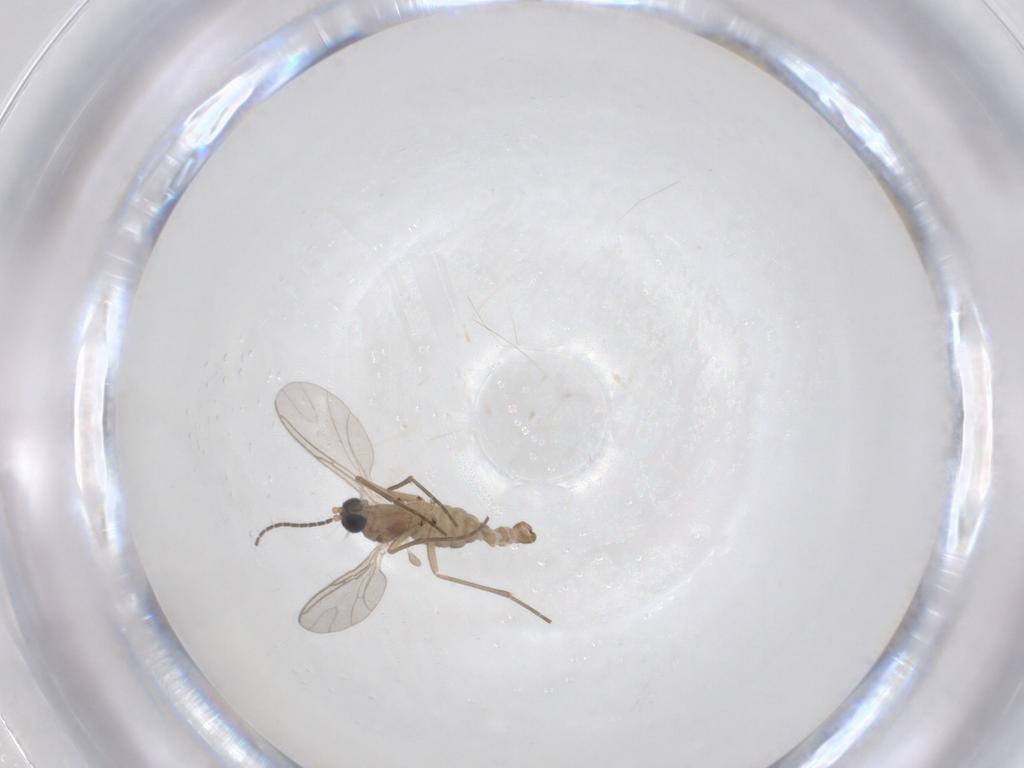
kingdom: Animalia
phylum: Arthropoda
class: Insecta
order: Diptera
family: Sciaridae
